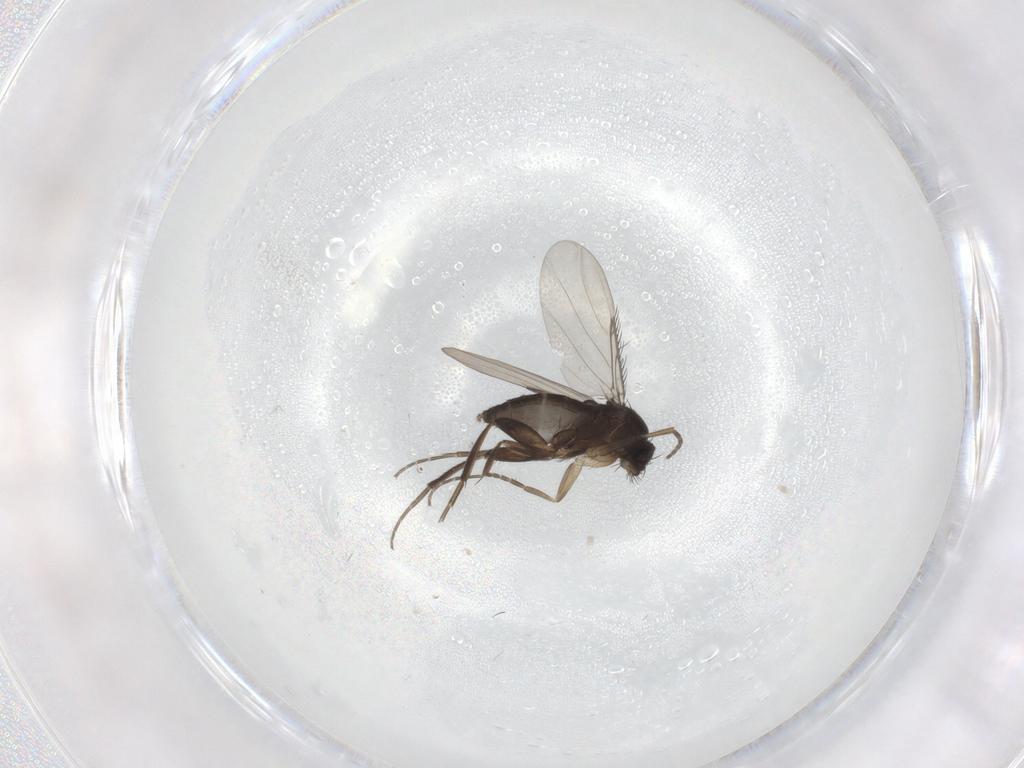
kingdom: Animalia
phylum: Arthropoda
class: Insecta
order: Diptera
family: Phoridae
